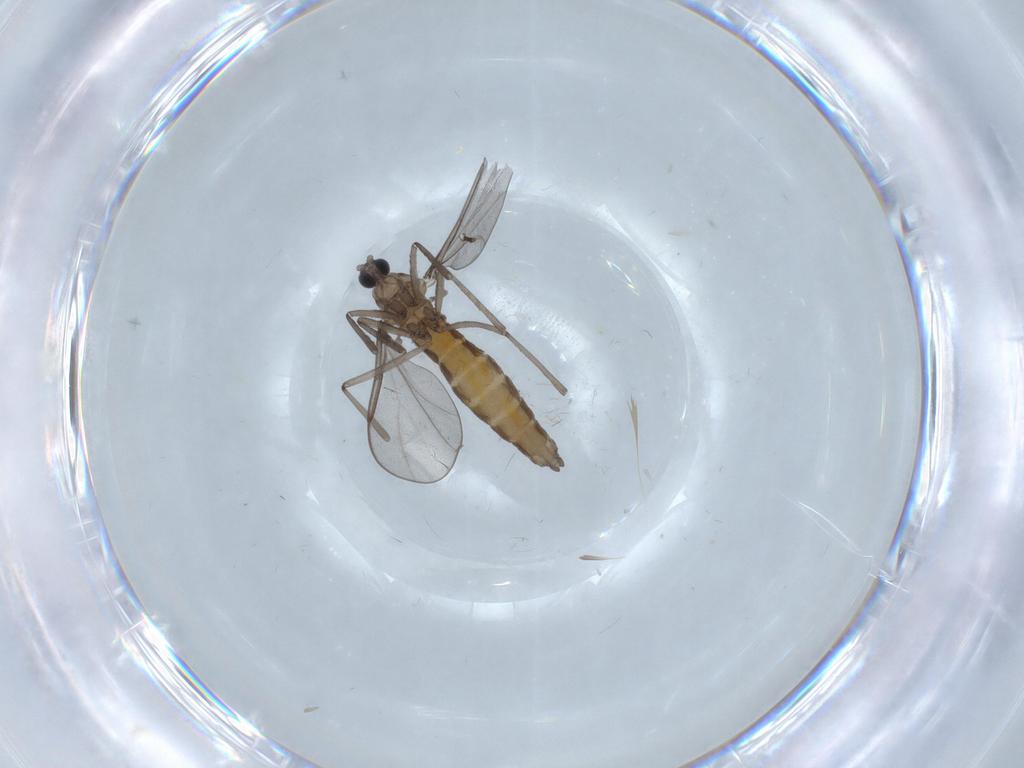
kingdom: Animalia
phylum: Arthropoda
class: Insecta
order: Diptera
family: Cecidomyiidae
